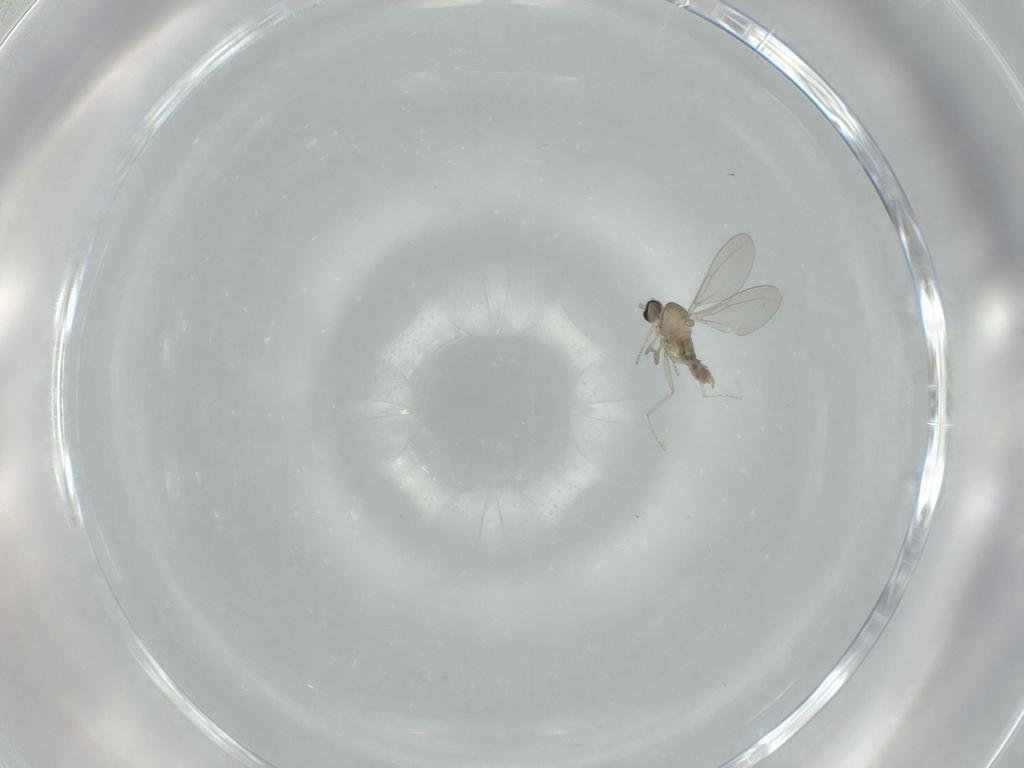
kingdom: Animalia
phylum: Arthropoda
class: Insecta
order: Diptera
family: Cecidomyiidae
